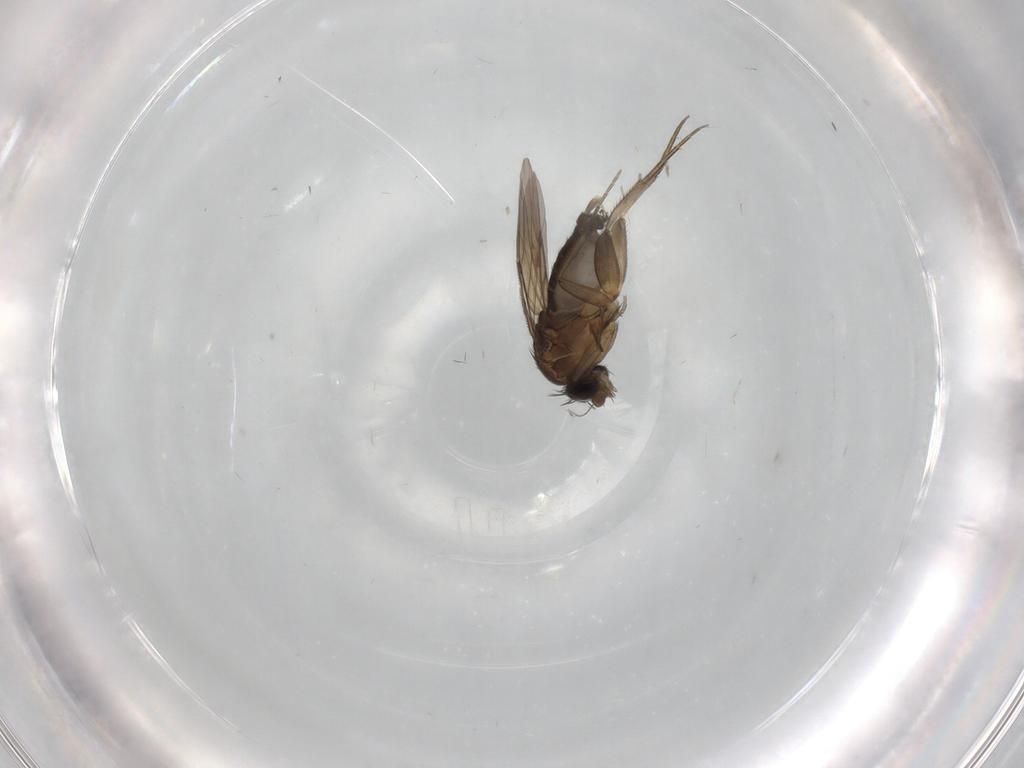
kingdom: Animalia
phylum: Arthropoda
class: Insecta
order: Diptera
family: Phoridae
